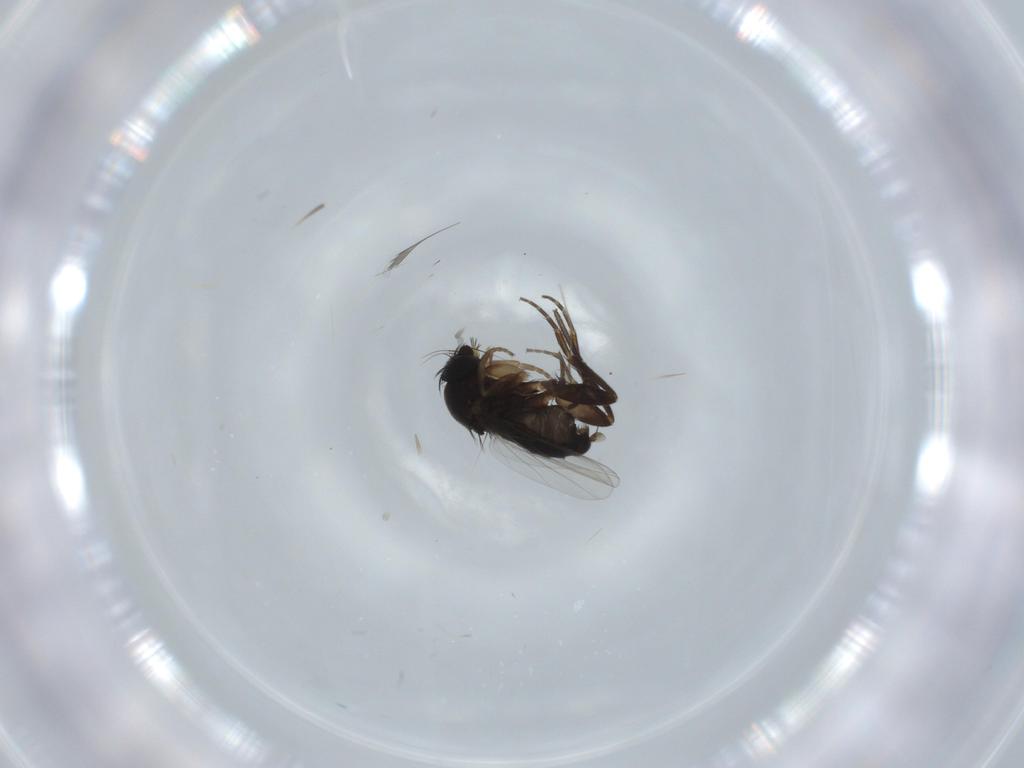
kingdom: Animalia
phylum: Arthropoda
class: Insecta
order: Diptera
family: Phoridae
